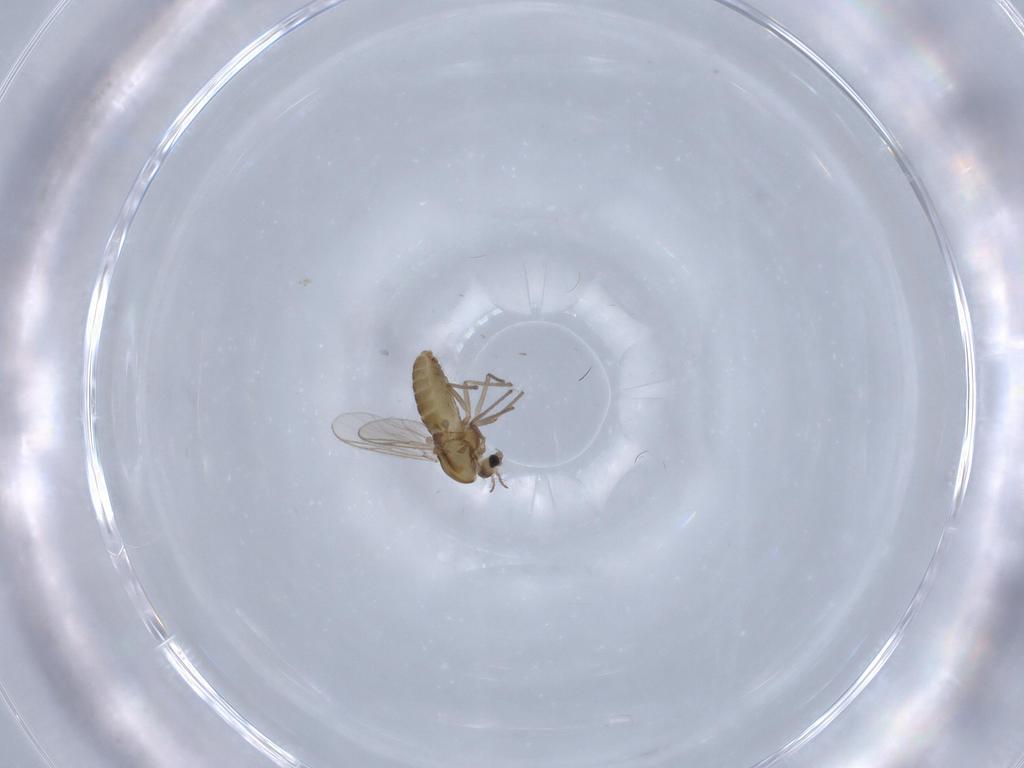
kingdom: Animalia
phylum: Arthropoda
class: Insecta
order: Diptera
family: Chironomidae
